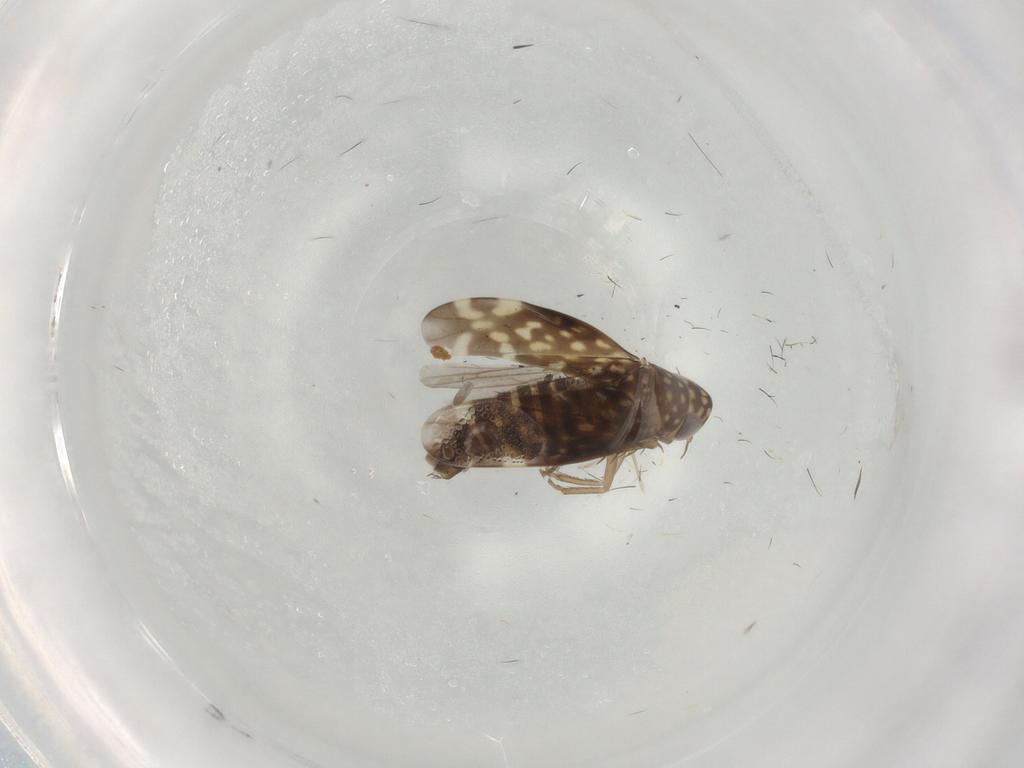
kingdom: Animalia
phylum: Arthropoda
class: Insecta
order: Hemiptera
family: Cicadellidae
